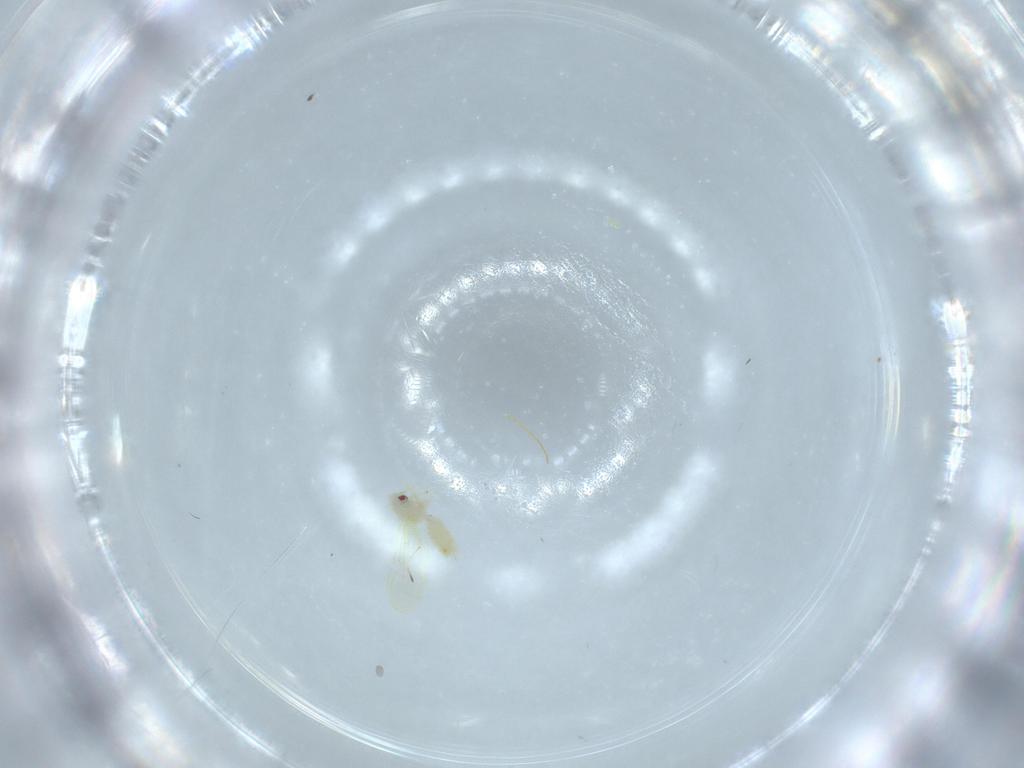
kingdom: Animalia
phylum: Arthropoda
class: Insecta
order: Hemiptera
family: Aleyrodidae
